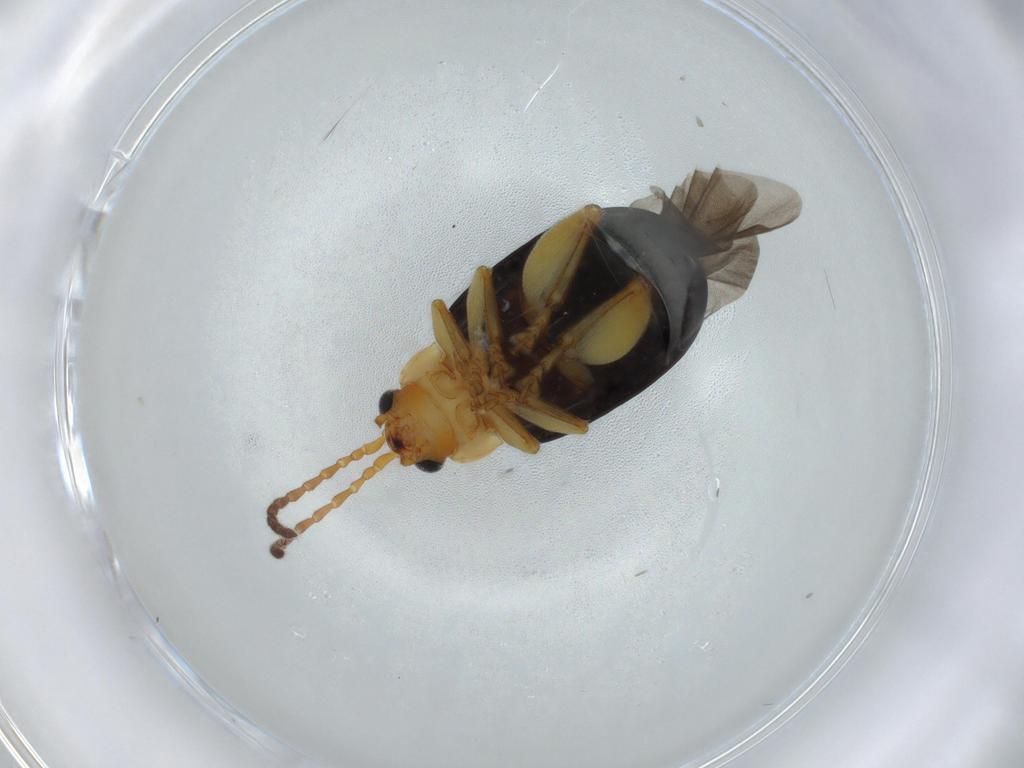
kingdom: Animalia
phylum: Arthropoda
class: Insecta
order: Coleoptera
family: Chrysomelidae
